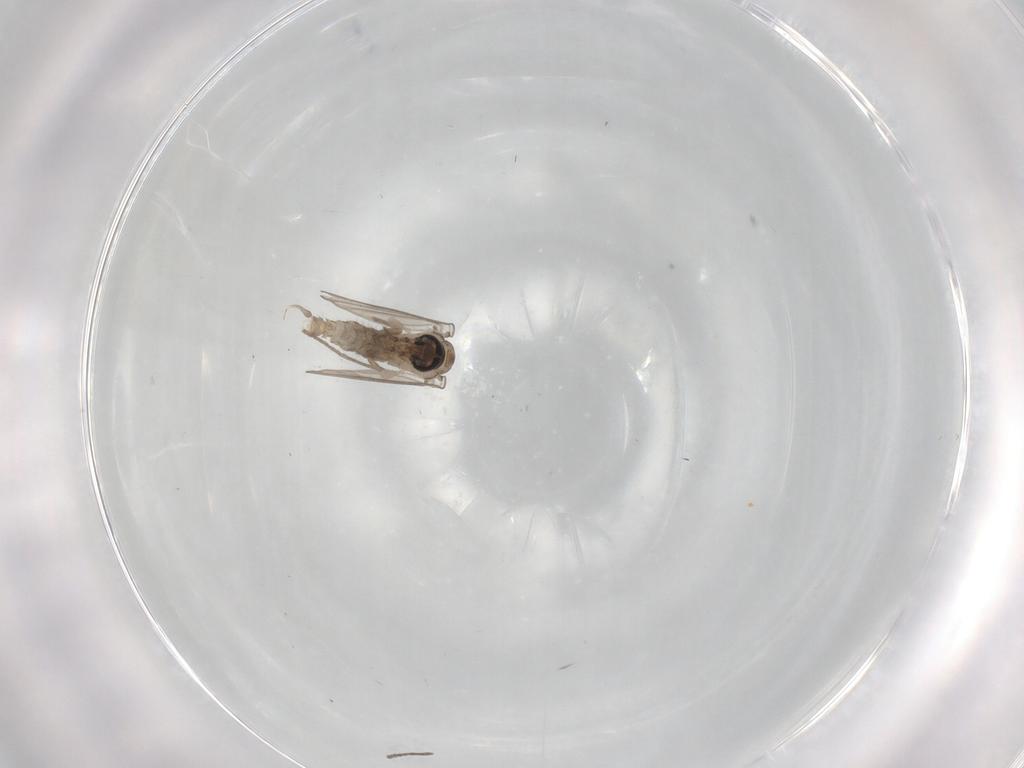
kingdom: Animalia
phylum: Arthropoda
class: Insecta
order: Diptera
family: Psychodidae
